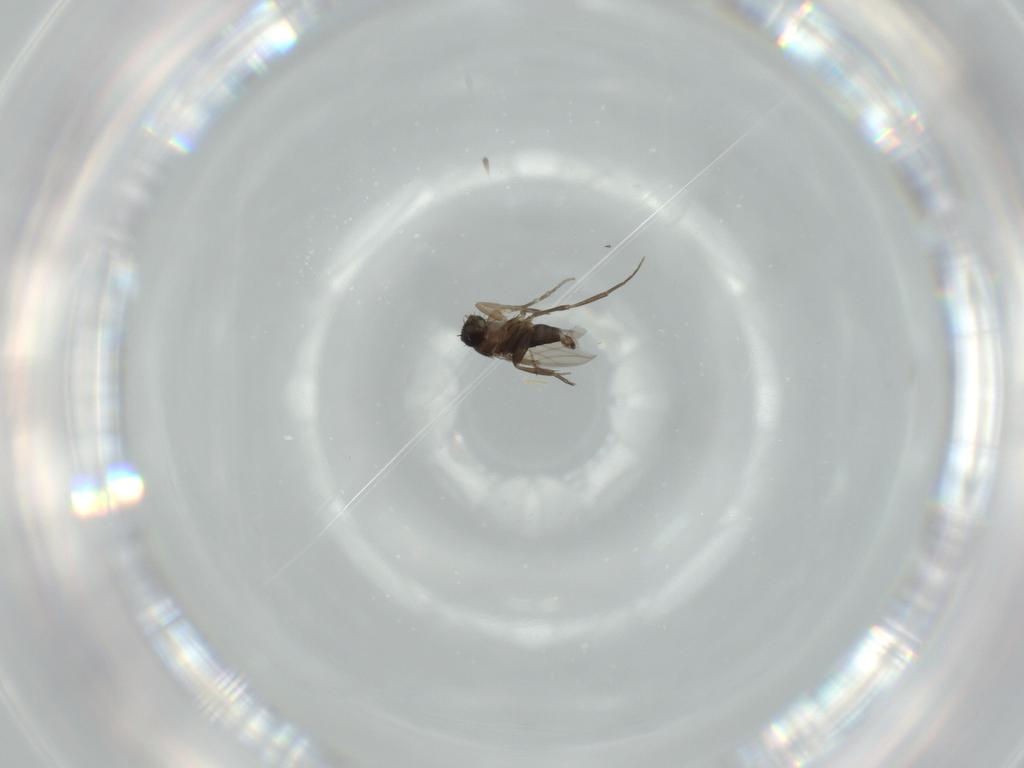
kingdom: Animalia
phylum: Arthropoda
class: Insecta
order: Diptera
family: Phoridae
